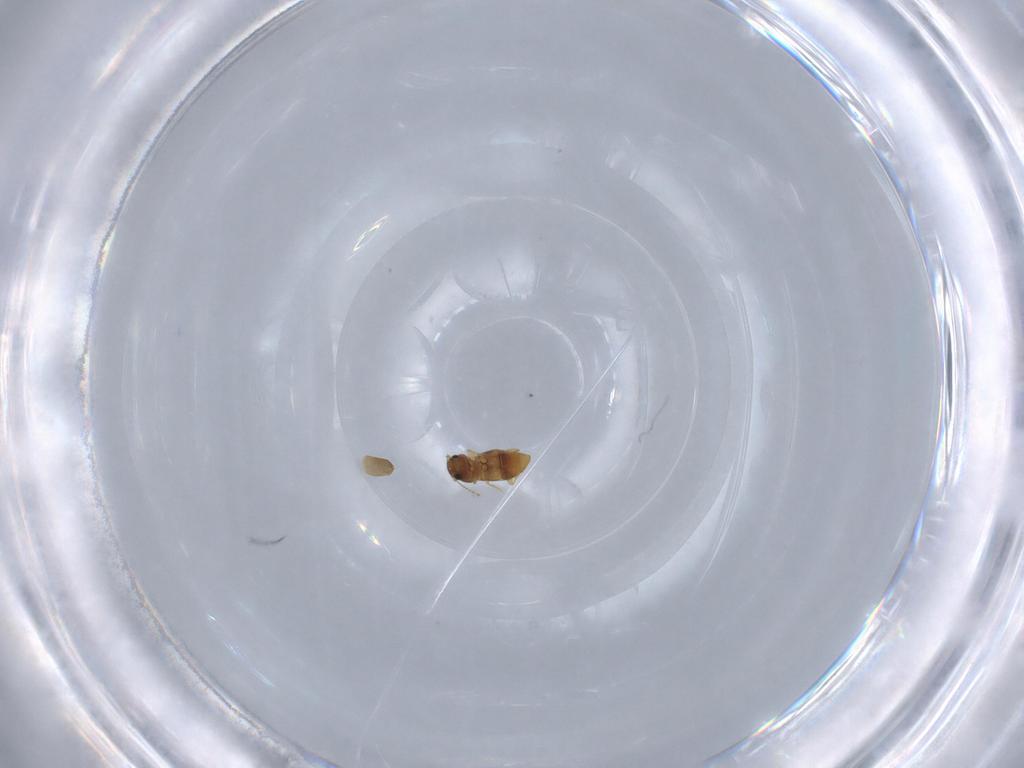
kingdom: Animalia
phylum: Arthropoda
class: Insecta
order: Coleoptera
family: Ptiliidae
